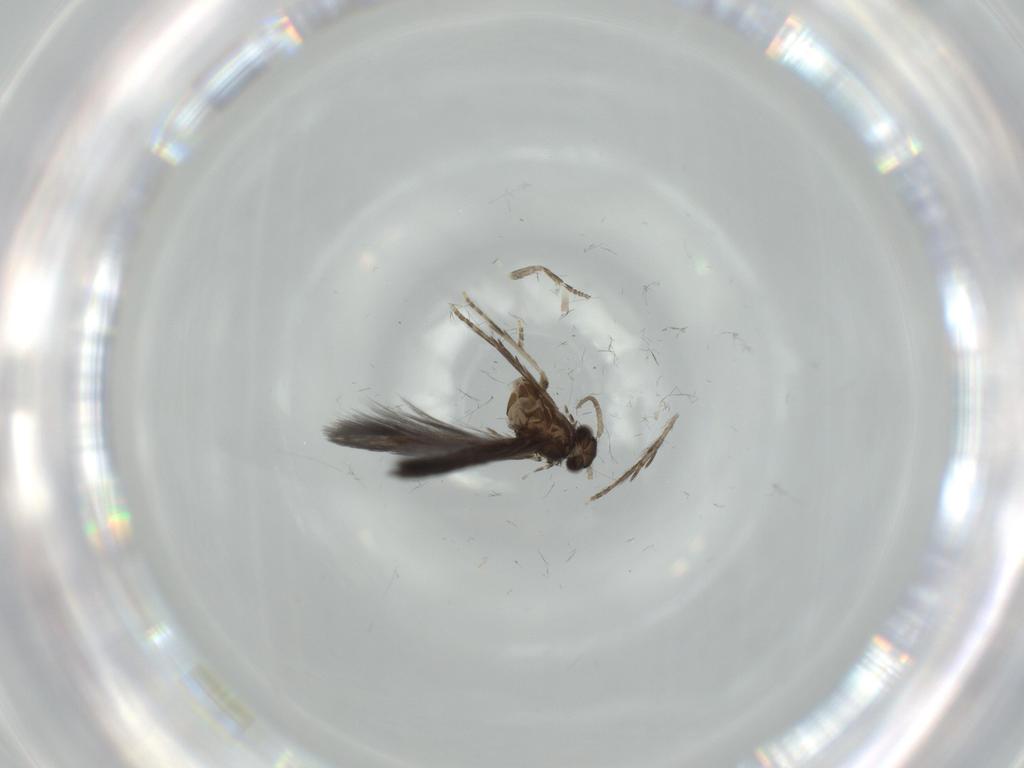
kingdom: Animalia
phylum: Arthropoda
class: Insecta
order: Trichoptera
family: Hydroptilidae
